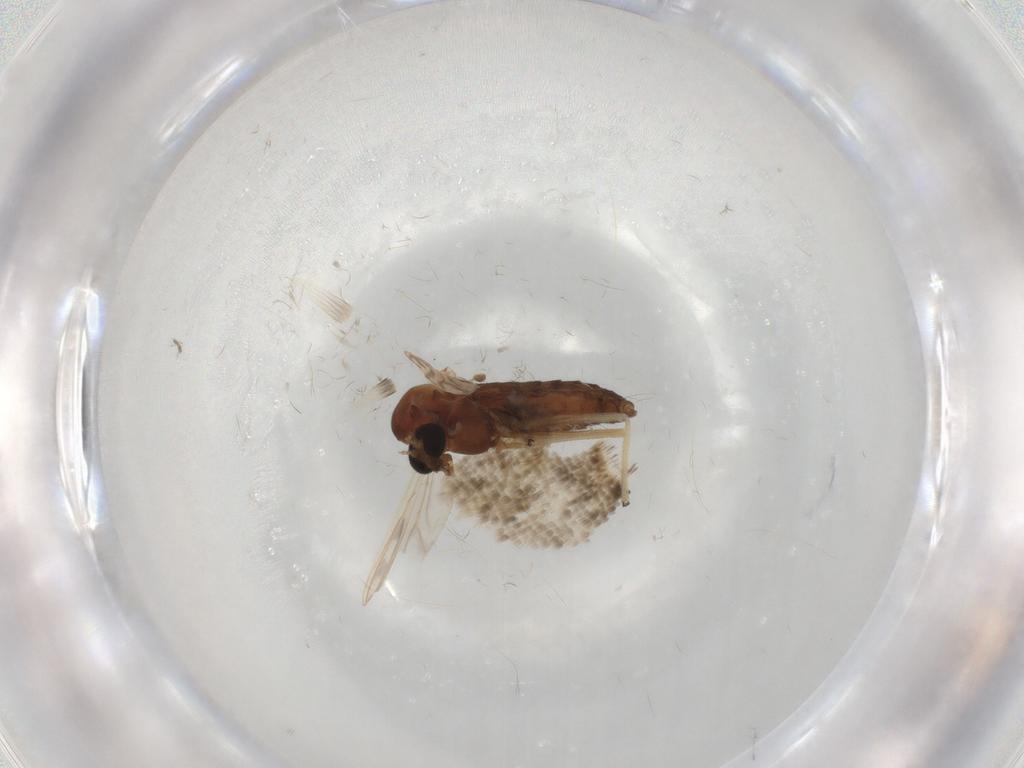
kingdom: Animalia
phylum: Arthropoda
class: Insecta
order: Diptera
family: Chironomidae
